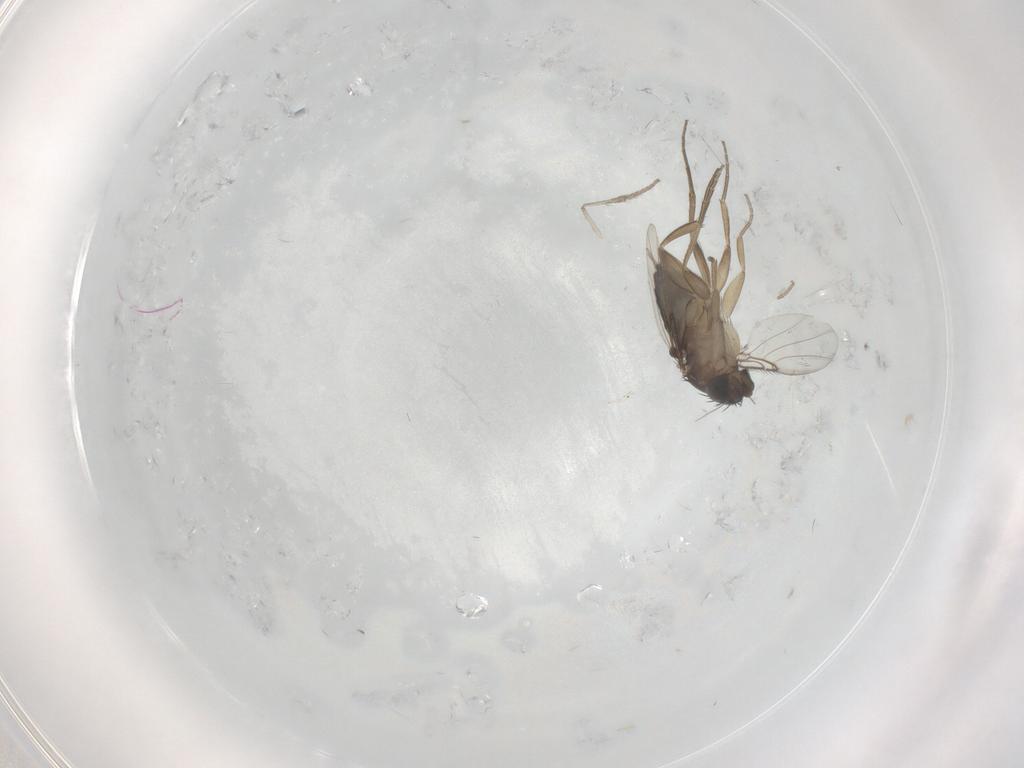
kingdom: Animalia
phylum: Arthropoda
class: Insecta
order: Diptera
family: Phoridae
